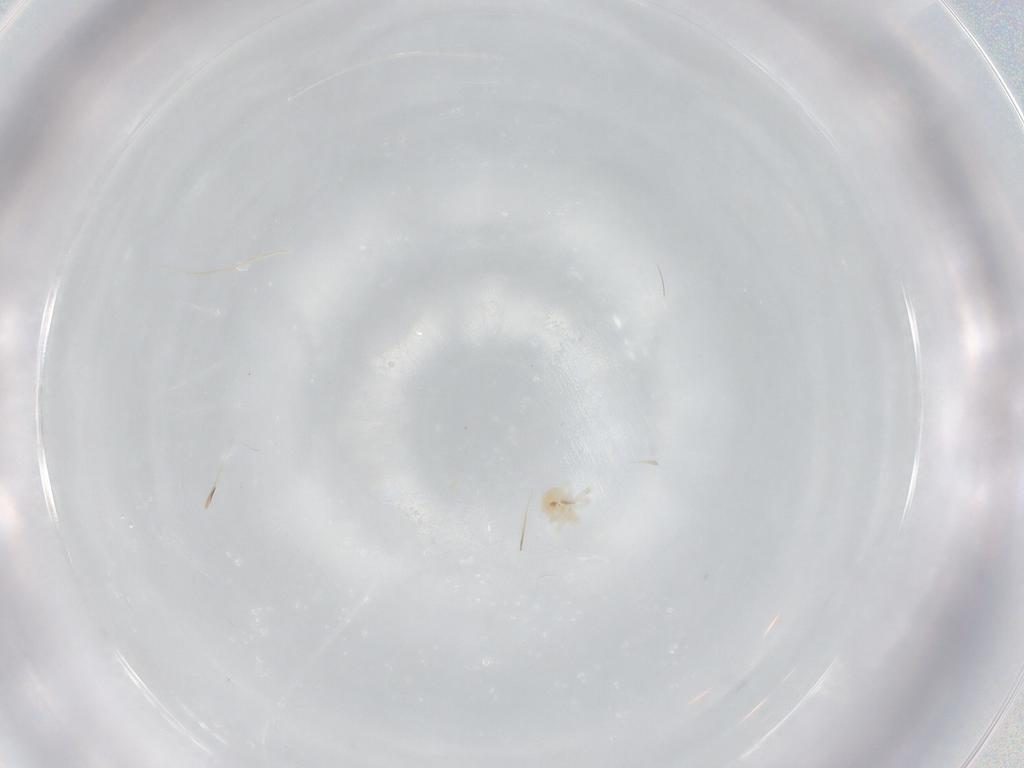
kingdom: Animalia
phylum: Arthropoda
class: Arachnida
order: Trombidiformes
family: Anystidae
